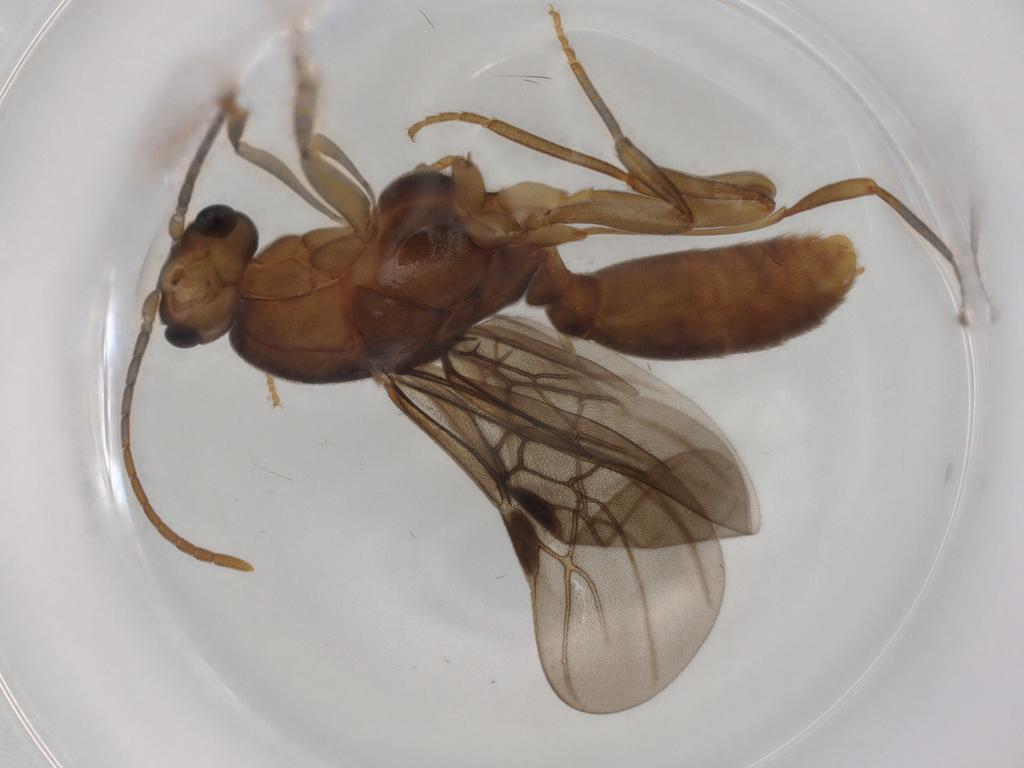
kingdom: Animalia
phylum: Arthropoda
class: Insecta
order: Hymenoptera
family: Formicidae
